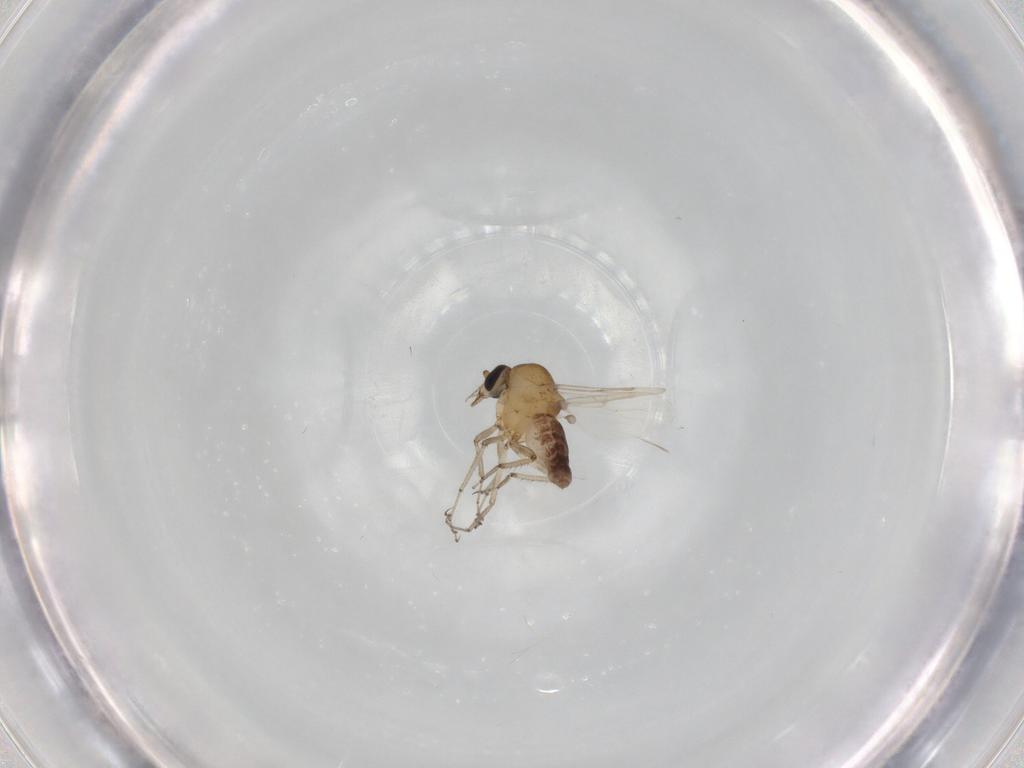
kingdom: Animalia
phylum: Arthropoda
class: Insecta
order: Diptera
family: Ceratopogonidae
